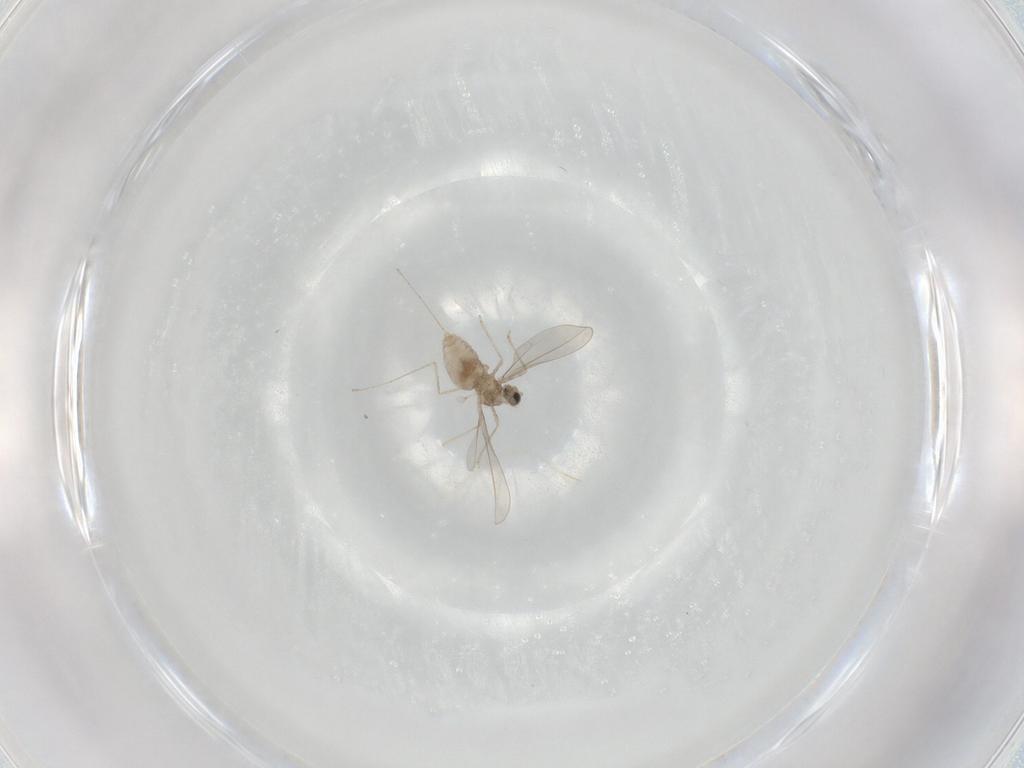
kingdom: Animalia
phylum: Arthropoda
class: Insecta
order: Diptera
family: Cecidomyiidae
